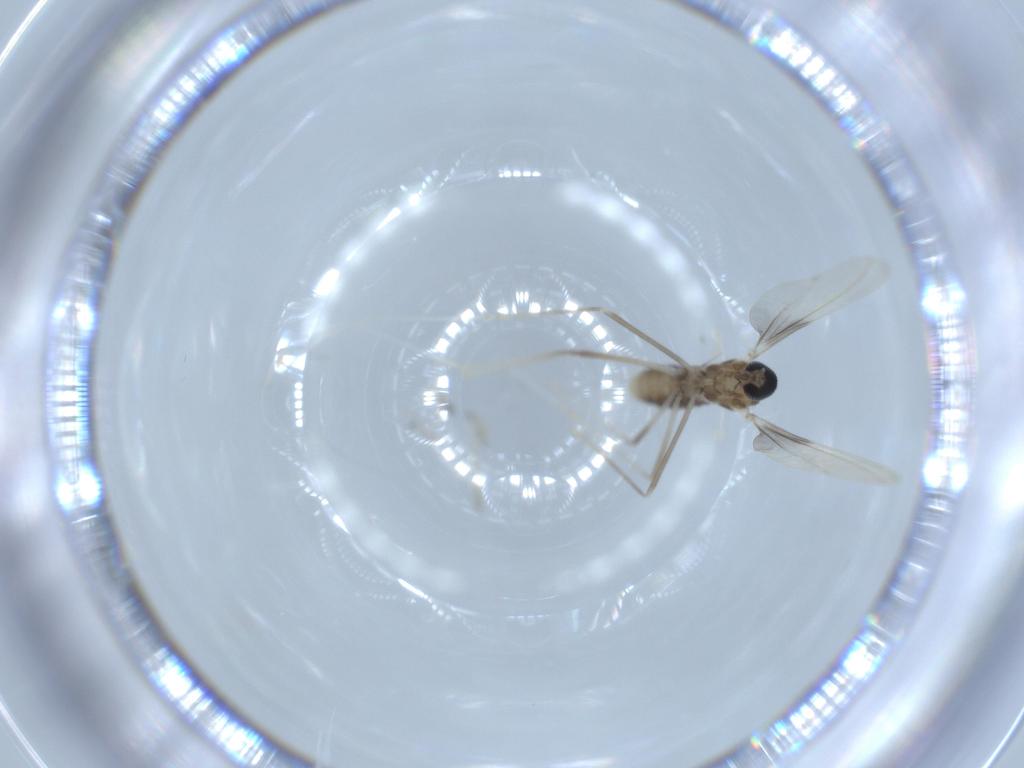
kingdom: Animalia
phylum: Arthropoda
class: Insecta
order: Diptera
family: Cecidomyiidae
